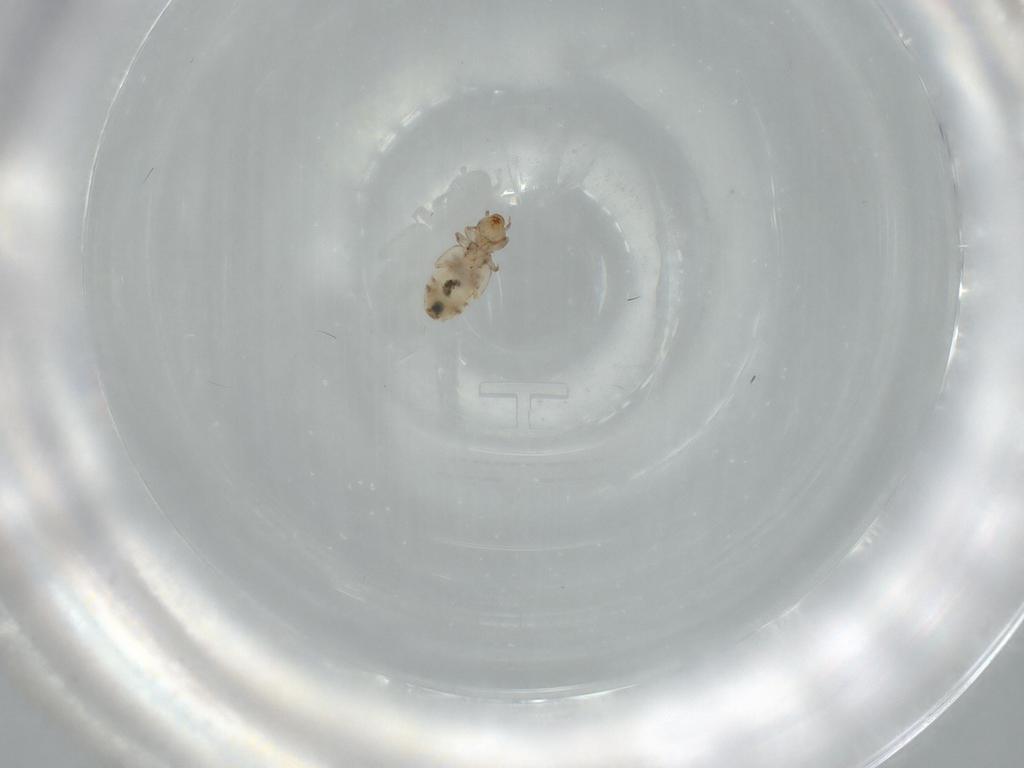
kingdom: Animalia
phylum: Arthropoda
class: Insecta
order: Psocodea
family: Liposcelididae
